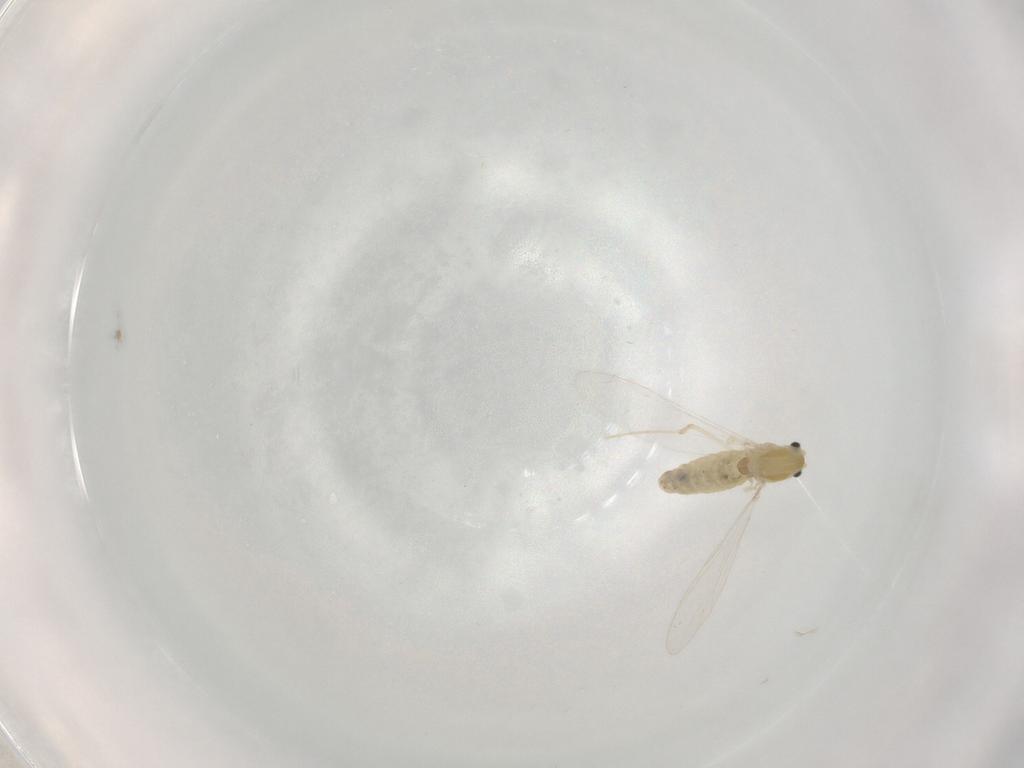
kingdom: Animalia
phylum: Arthropoda
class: Insecta
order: Diptera
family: Chironomidae
